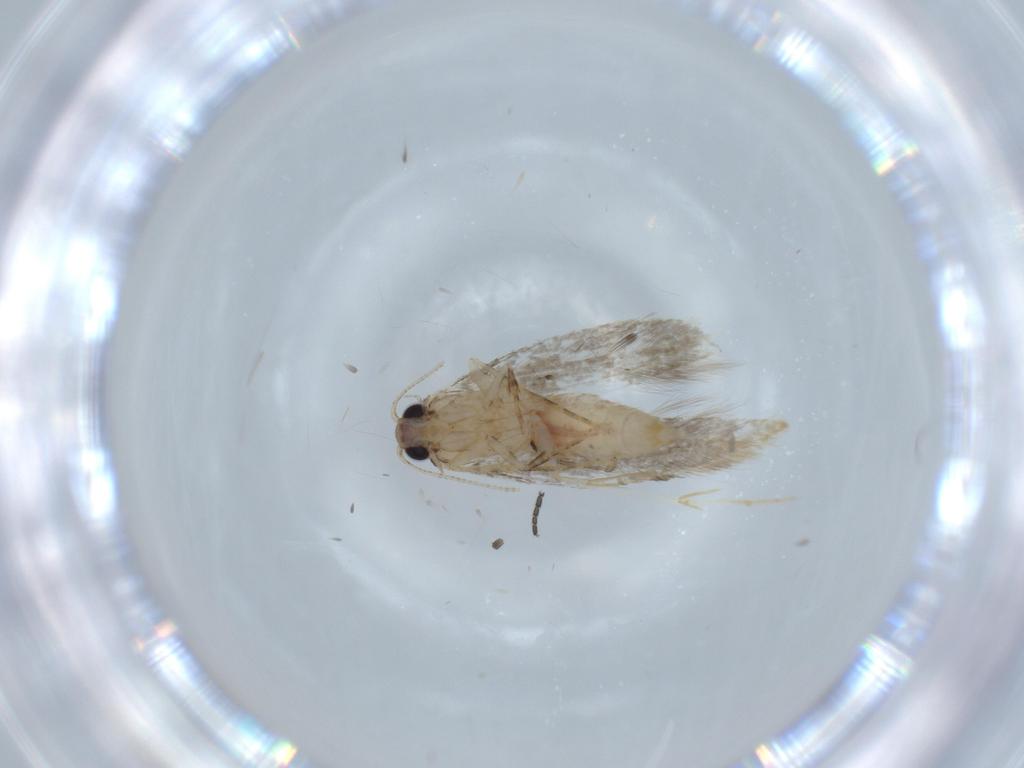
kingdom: Animalia
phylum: Arthropoda
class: Insecta
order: Lepidoptera
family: Tineidae
